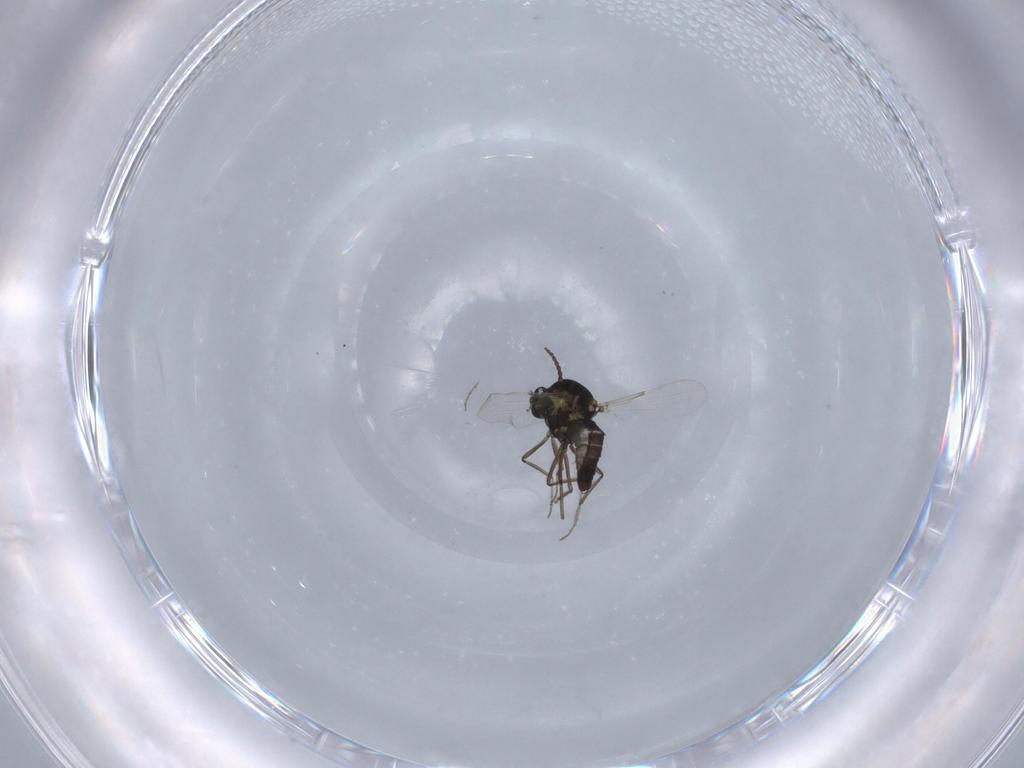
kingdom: Animalia
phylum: Arthropoda
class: Insecta
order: Diptera
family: Ceratopogonidae
